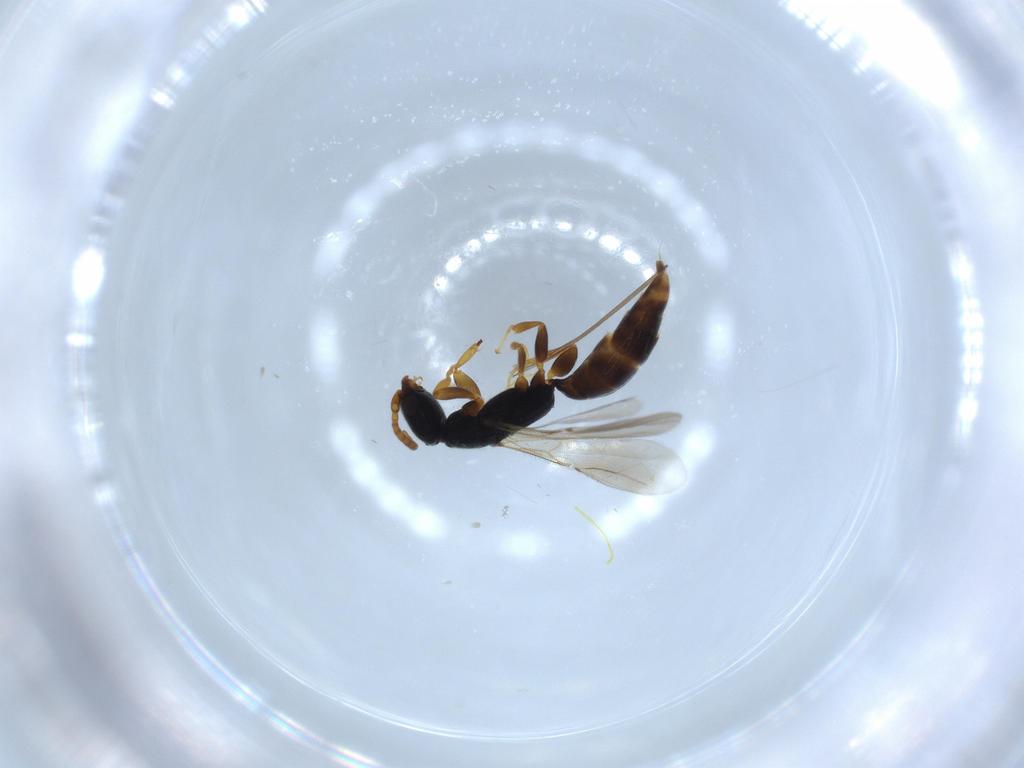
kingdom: Animalia
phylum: Arthropoda
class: Insecta
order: Hymenoptera
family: Bethylidae
